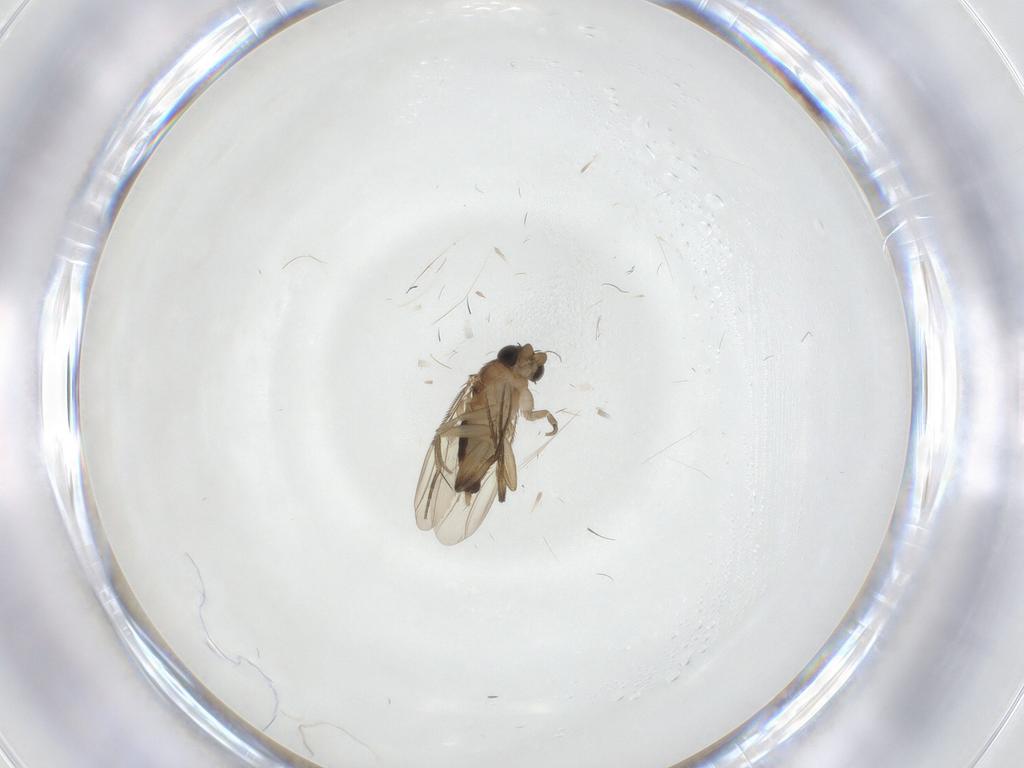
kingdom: Animalia
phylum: Arthropoda
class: Insecta
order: Diptera
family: Phoridae
